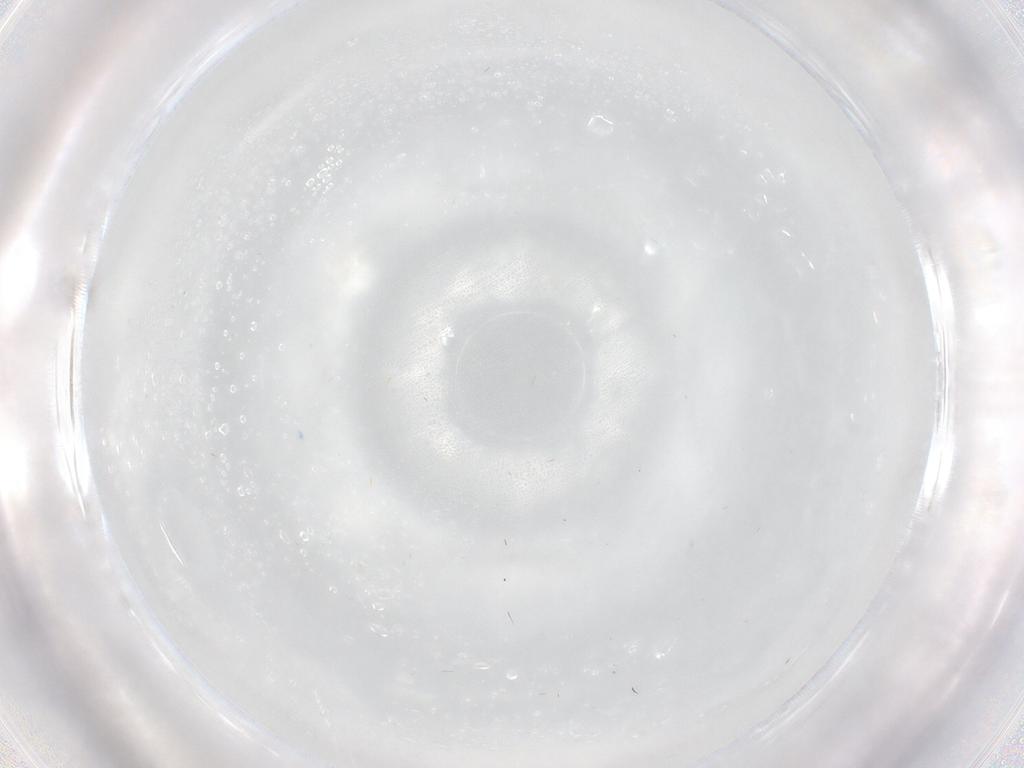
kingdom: Animalia
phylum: Arthropoda
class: Insecta
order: Hymenoptera
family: Eulophidae
